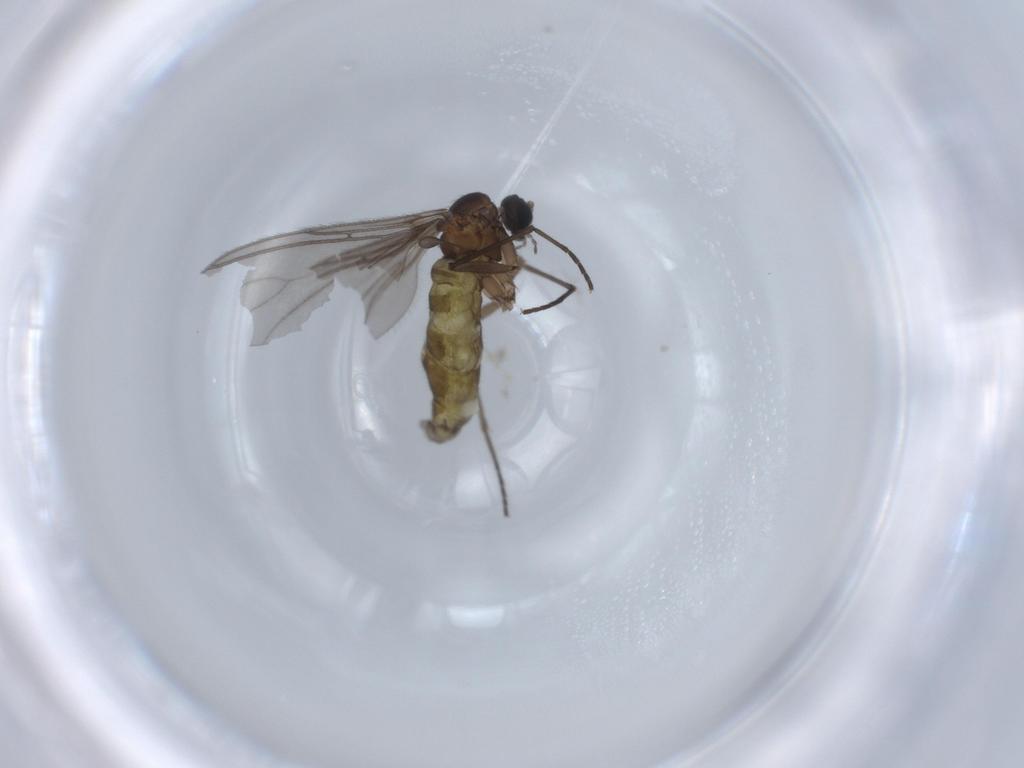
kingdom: Animalia
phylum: Arthropoda
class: Insecta
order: Diptera
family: Sciaridae
